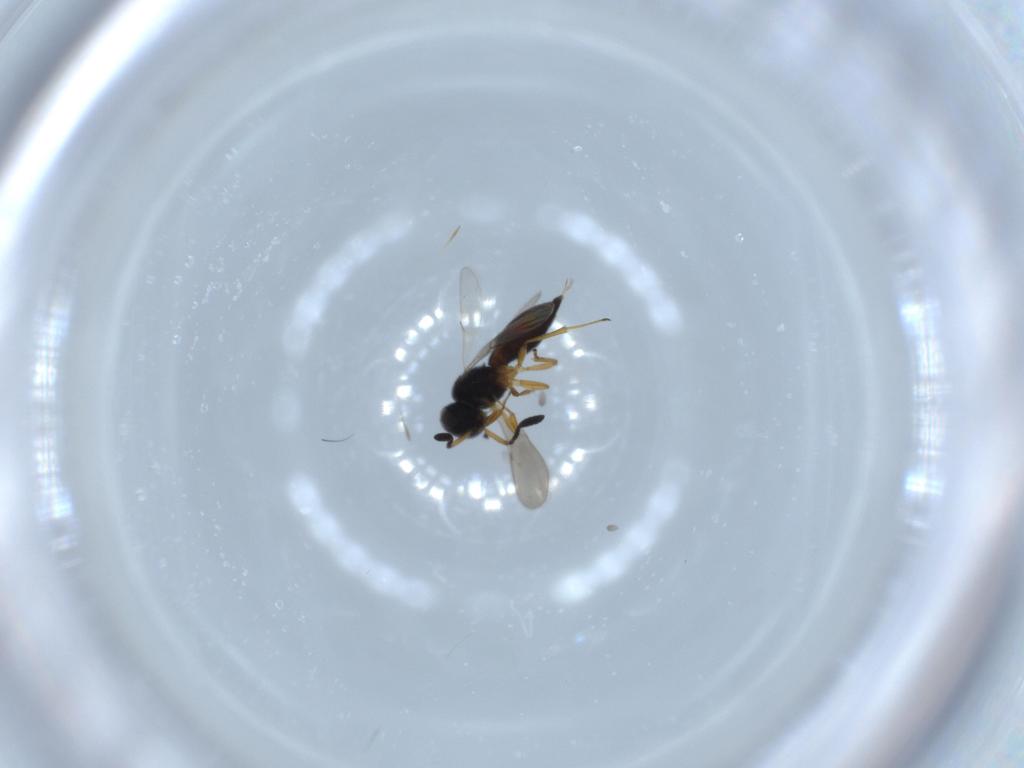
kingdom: Animalia
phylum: Arthropoda
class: Insecta
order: Hymenoptera
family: Scelionidae
